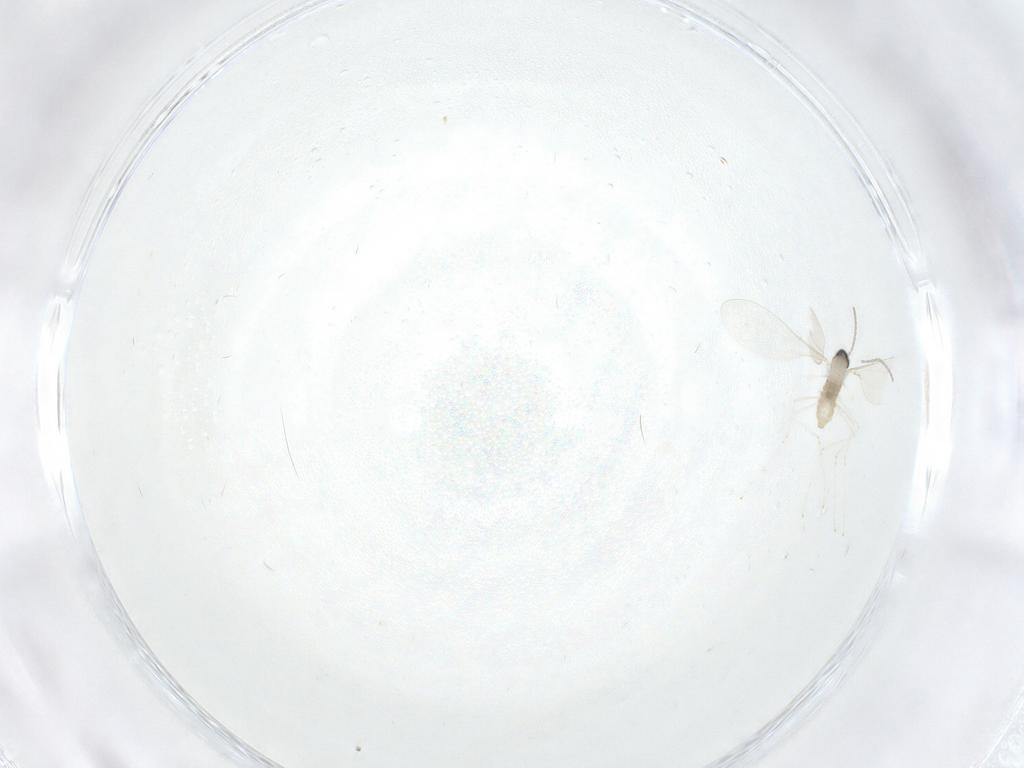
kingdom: Animalia
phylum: Arthropoda
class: Insecta
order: Diptera
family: Cecidomyiidae
